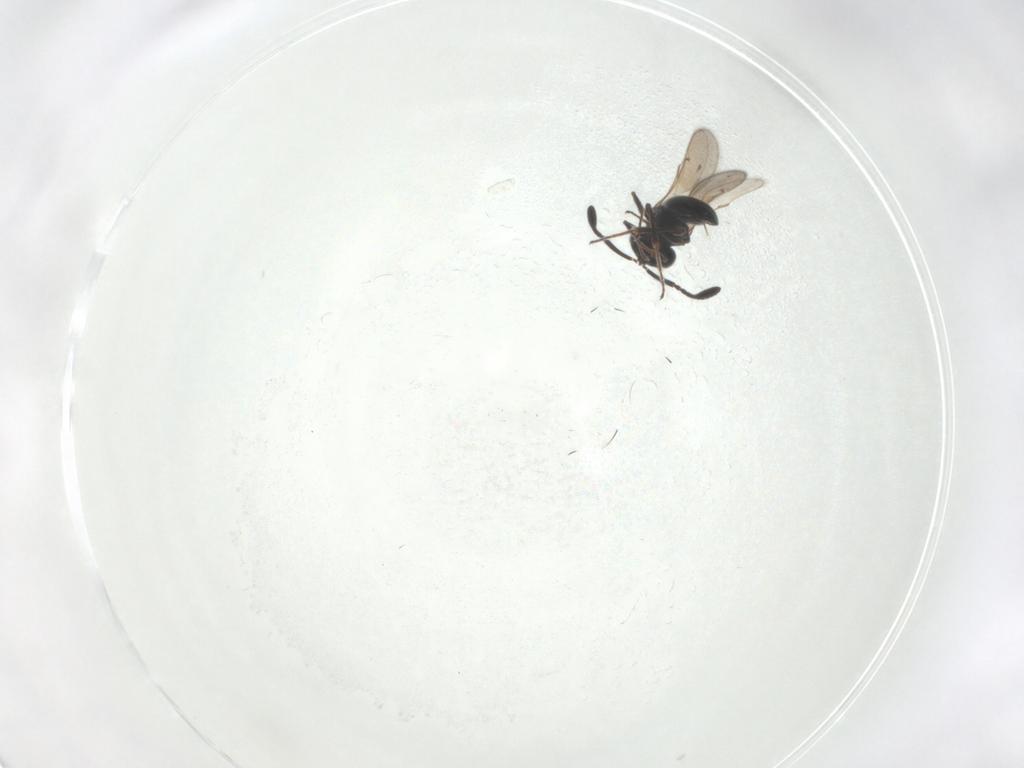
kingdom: Animalia
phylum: Arthropoda
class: Insecta
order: Hymenoptera
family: Scelionidae
